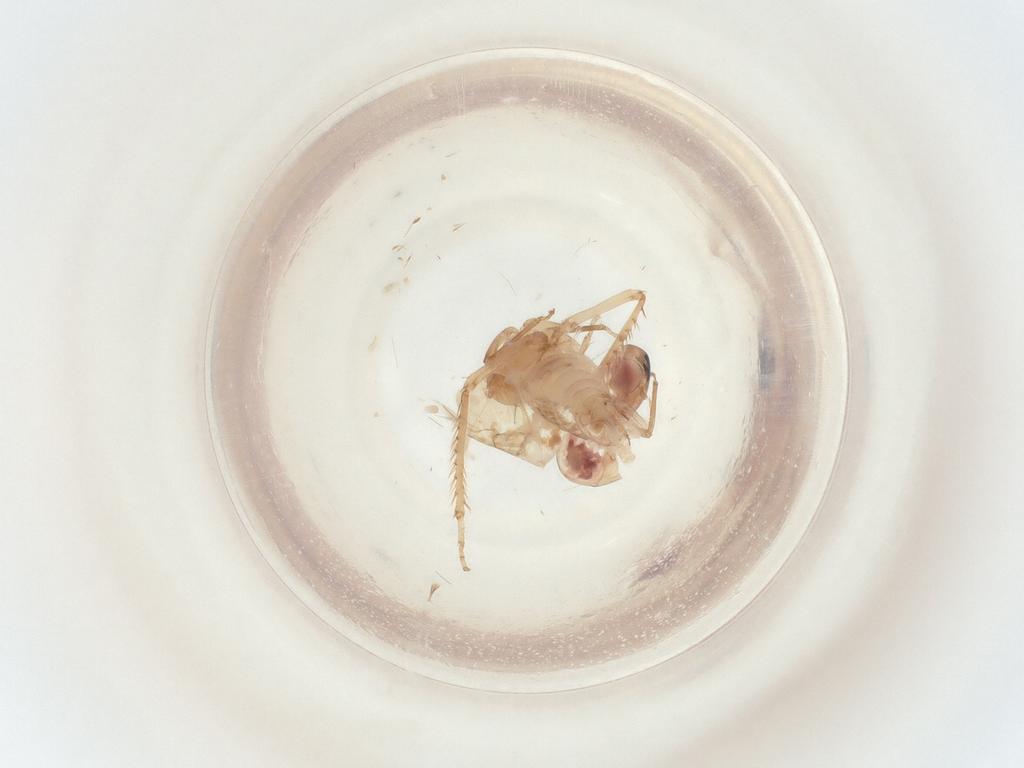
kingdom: Animalia
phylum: Arthropoda
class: Insecta
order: Hemiptera
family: Cicadellidae
